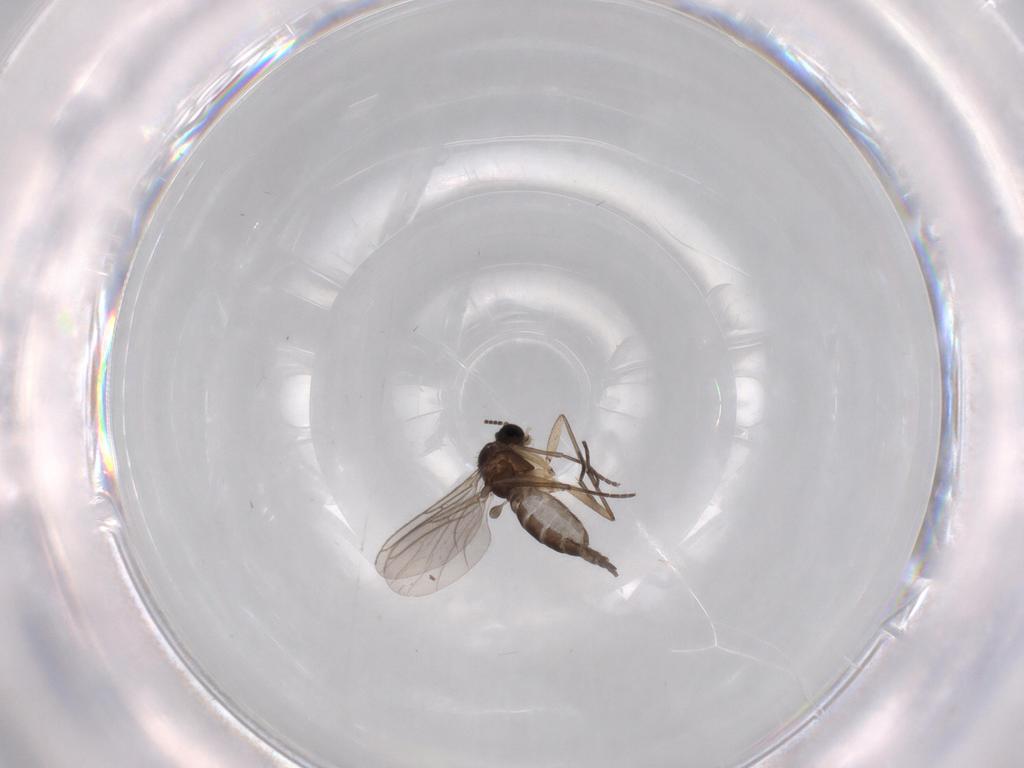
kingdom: Animalia
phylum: Arthropoda
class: Insecta
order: Diptera
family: Sciaridae
